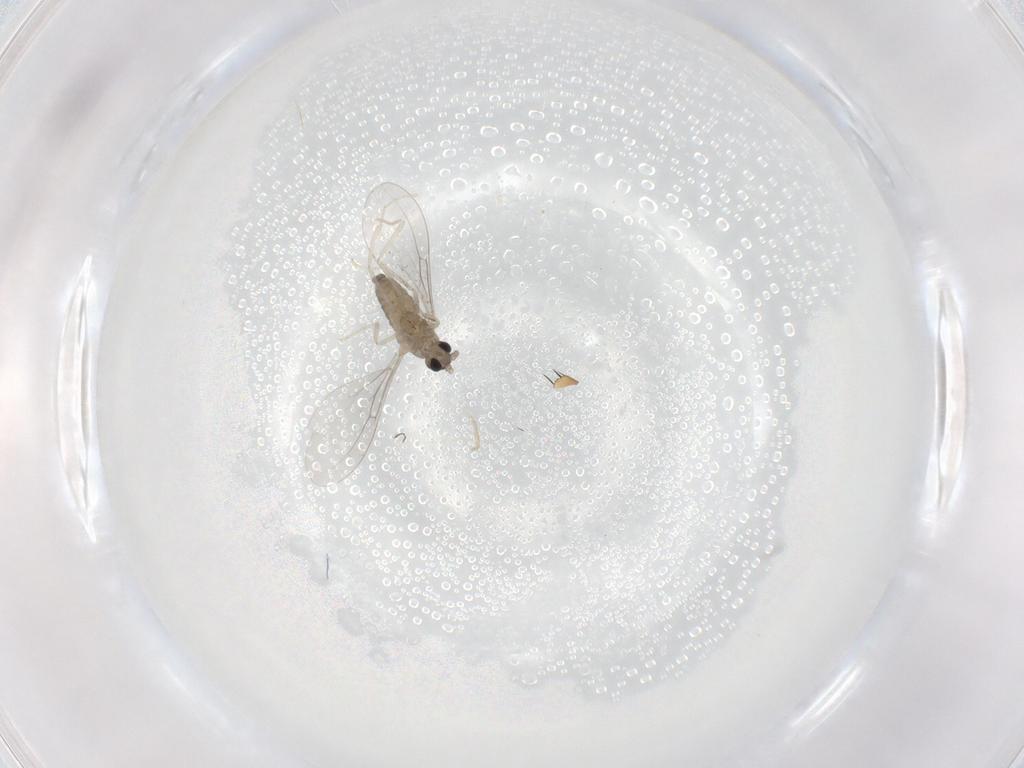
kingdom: Animalia
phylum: Arthropoda
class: Insecta
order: Diptera
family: Cecidomyiidae
